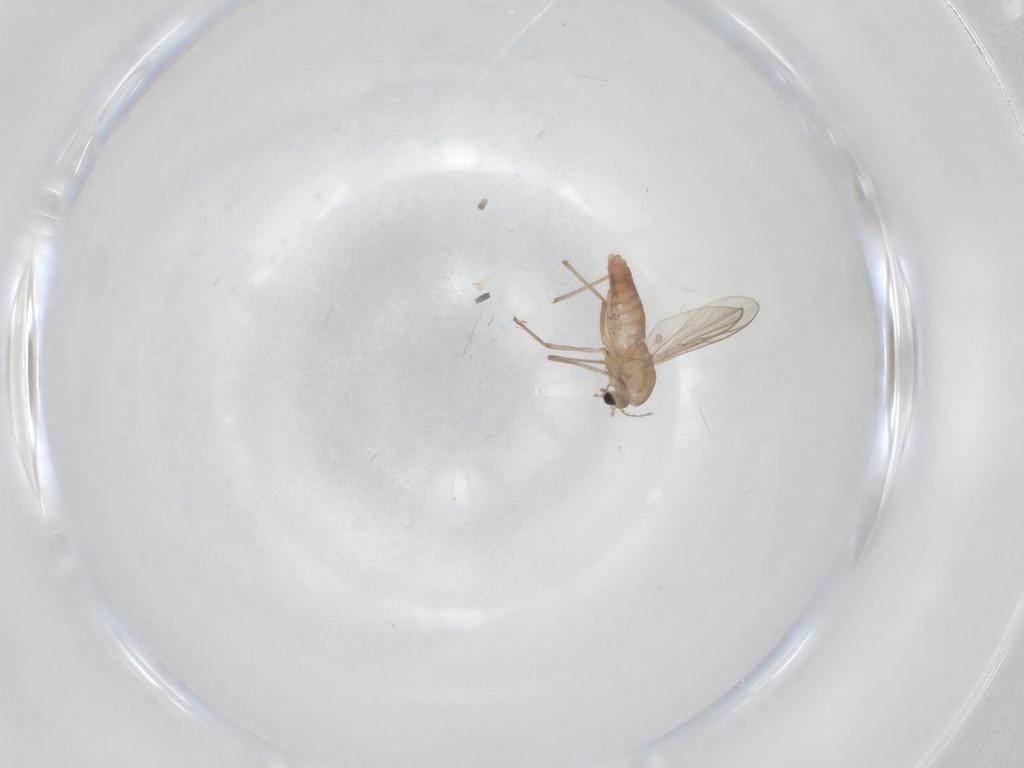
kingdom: Animalia
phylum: Arthropoda
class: Insecta
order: Diptera
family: Chironomidae
